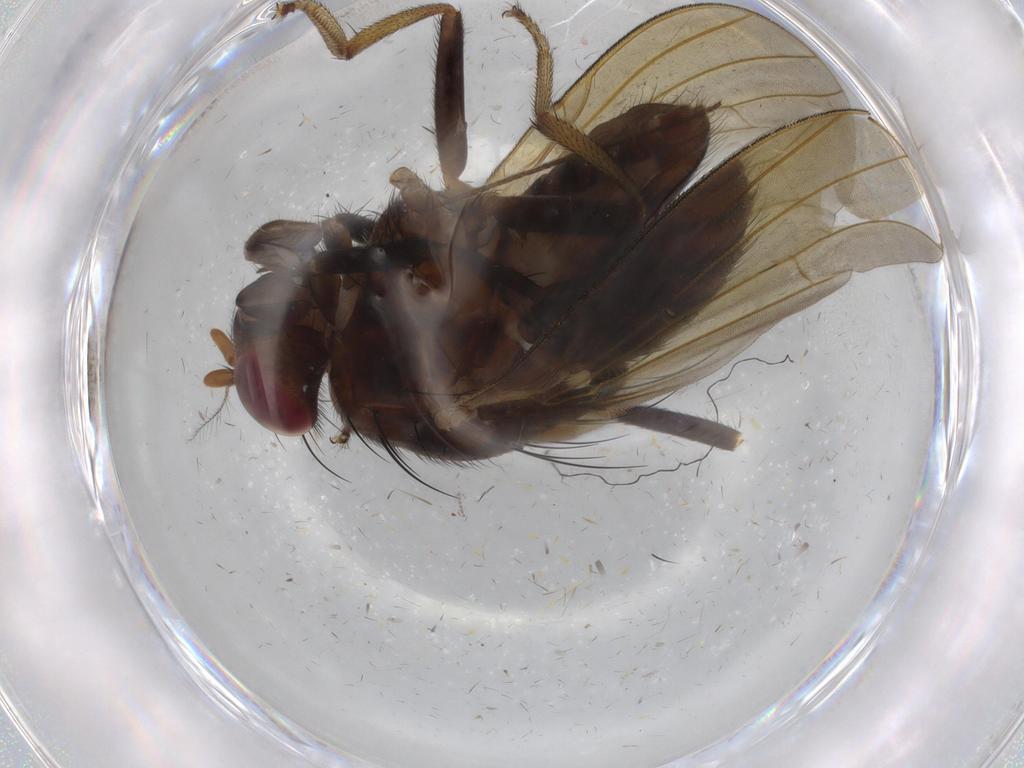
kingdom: Animalia
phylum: Arthropoda
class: Insecta
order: Diptera
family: Limoniidae
